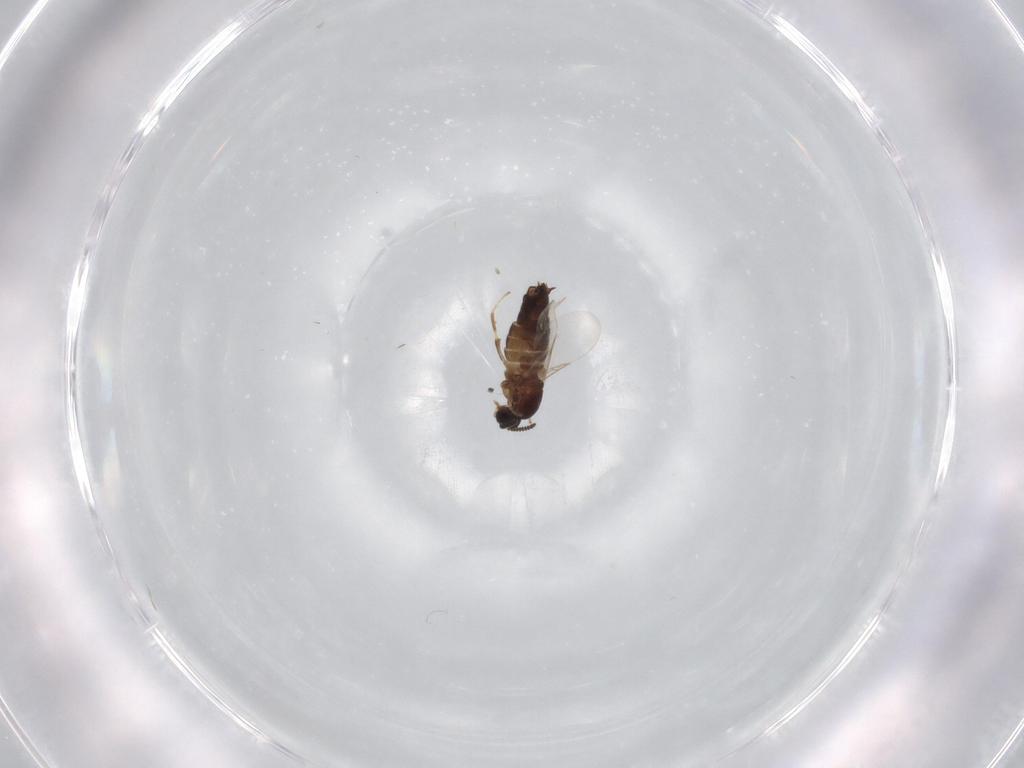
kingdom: Animalia
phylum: Arthropoda
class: Insecta
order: Diptera
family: Scatopsidae
